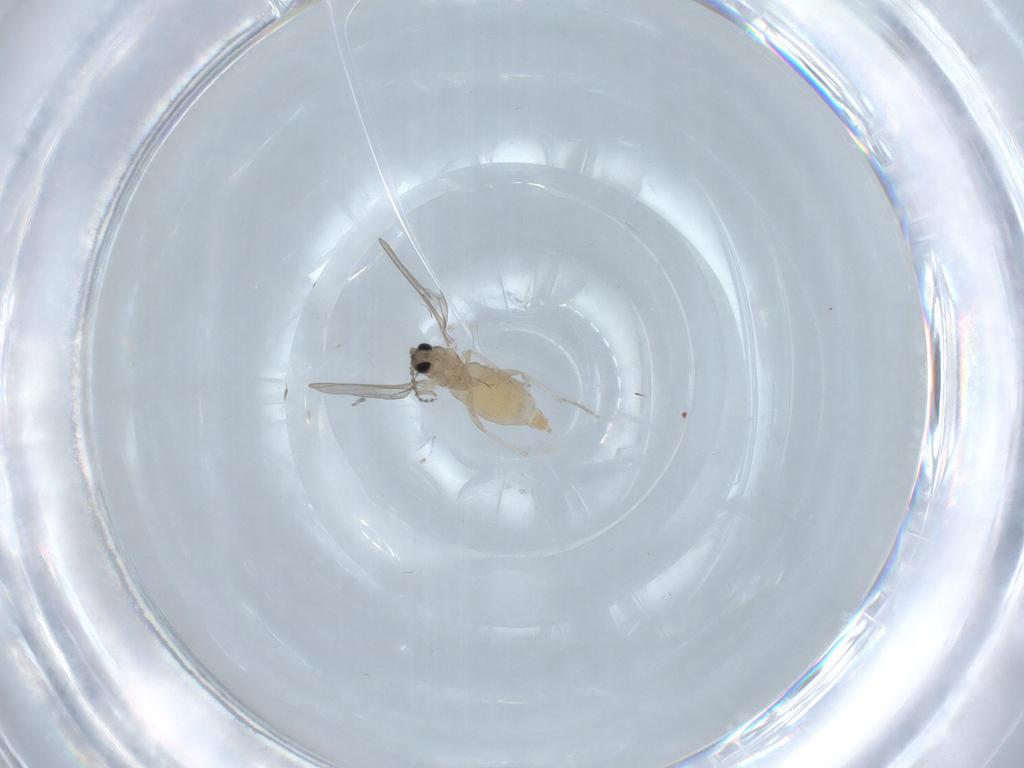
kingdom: Animalia
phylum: Arthropoda
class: Insecta
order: Diptera
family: Cecidomyiidae
